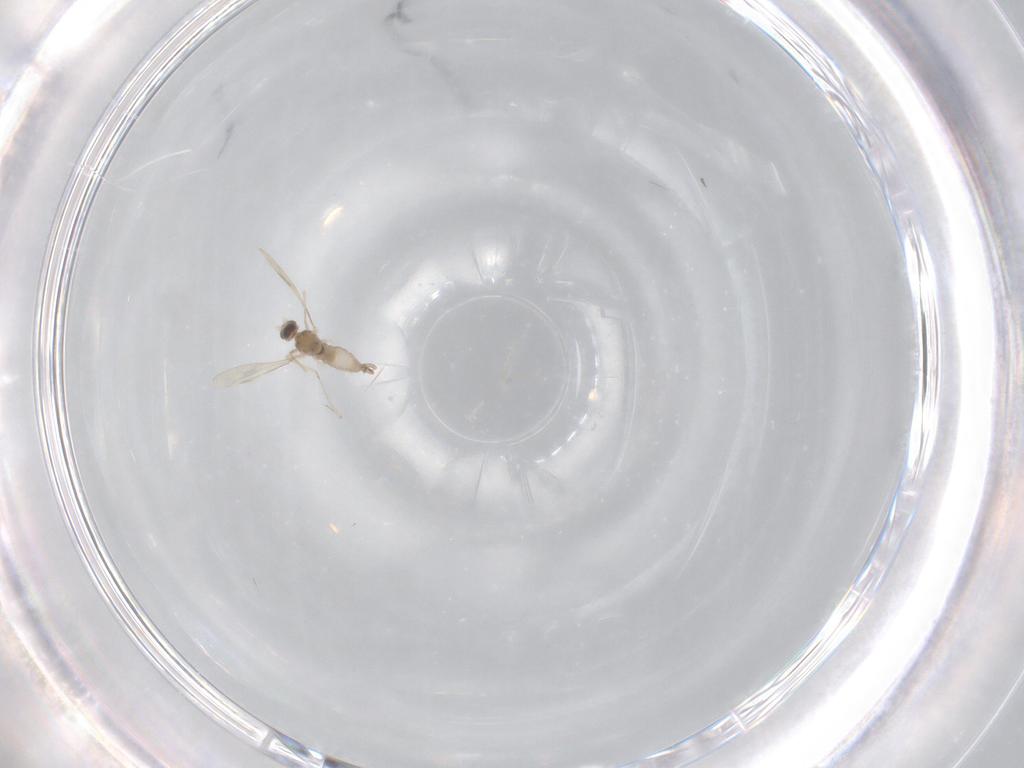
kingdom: Animalia
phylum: Arthropoda
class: Insecta
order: Diptera
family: Cecidomyiidae
